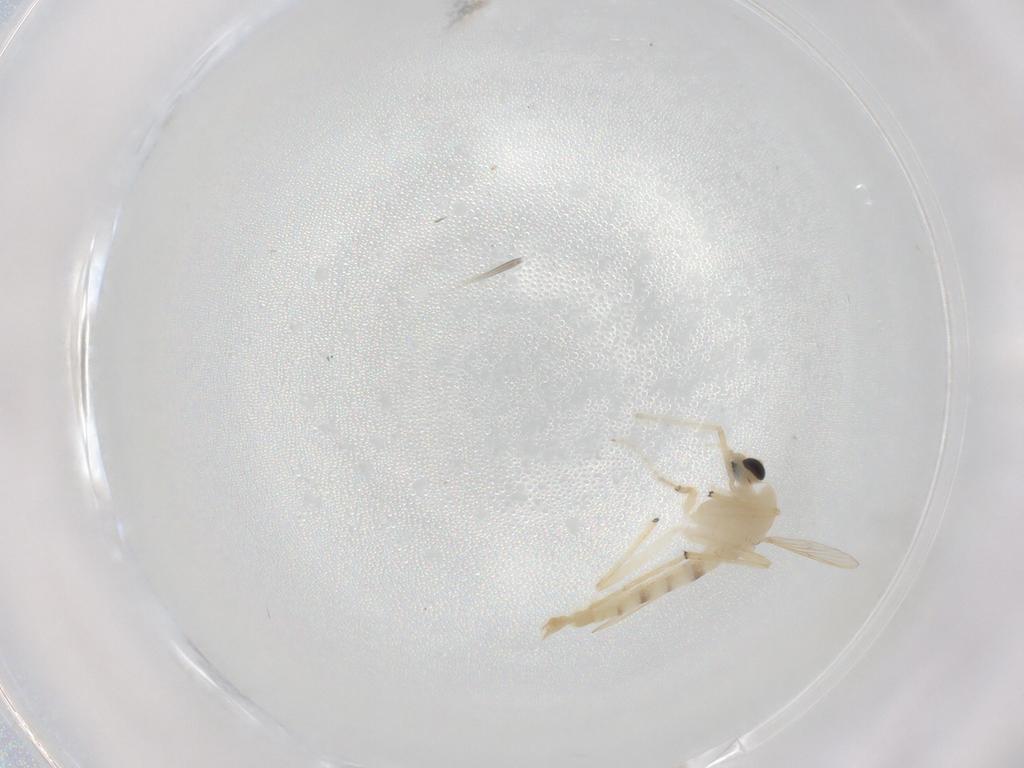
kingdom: Animalia
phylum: Arthropoda
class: Insecta
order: Diptera
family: Chironomidae
